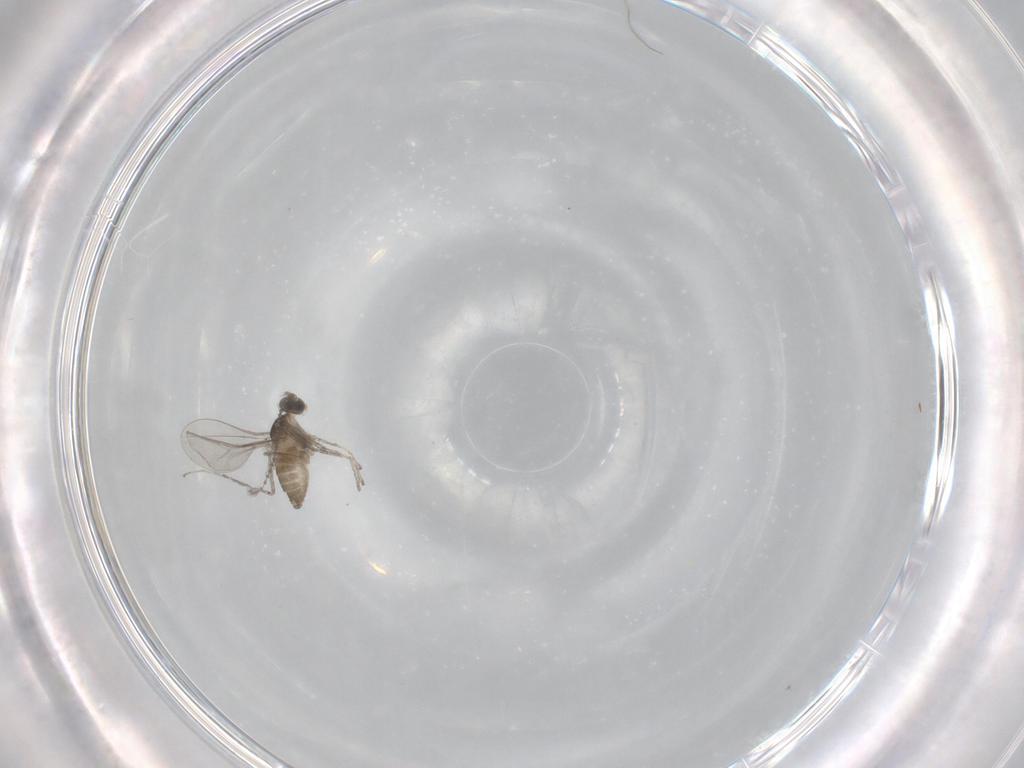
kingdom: Animalia
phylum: Arthropoda
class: Insecta
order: Diptera
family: Sciaridae
